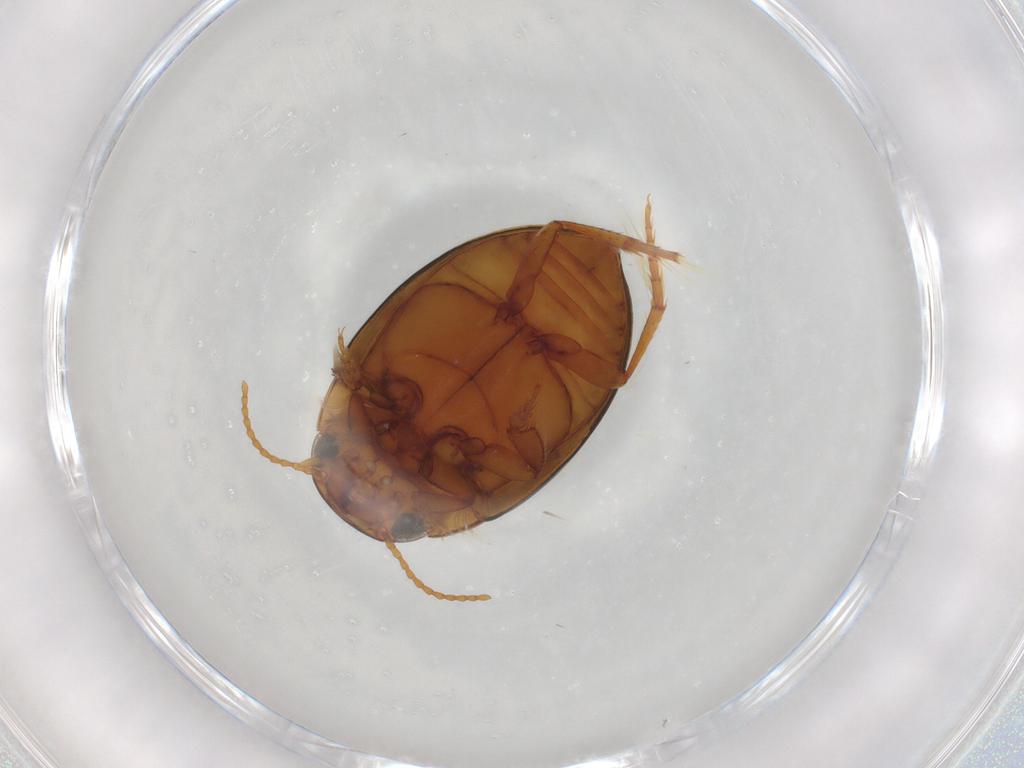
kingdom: Animalia
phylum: Arthropoda
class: Insecta
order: Coleoptera
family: Dytiscidae
